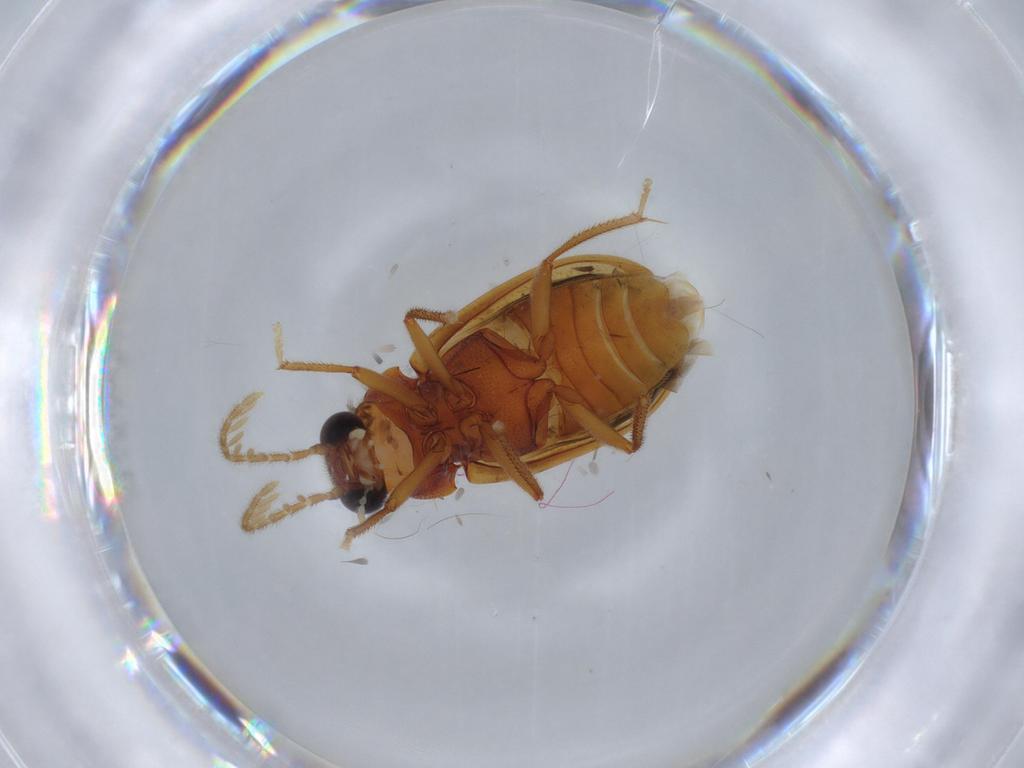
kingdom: Animalia
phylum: Arthropoda
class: Insecta
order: Coleoptera
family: Ptilodactylidae
